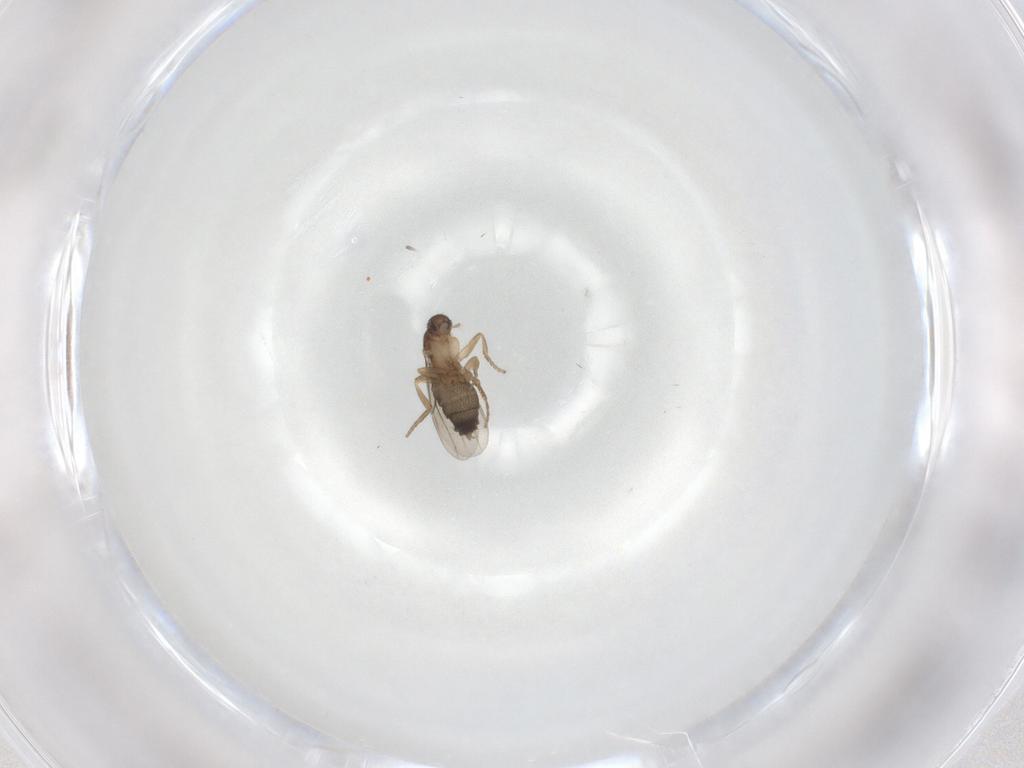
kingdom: Animalia
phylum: Arthropoda
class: Insecta
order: Diptera
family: Phoridae
